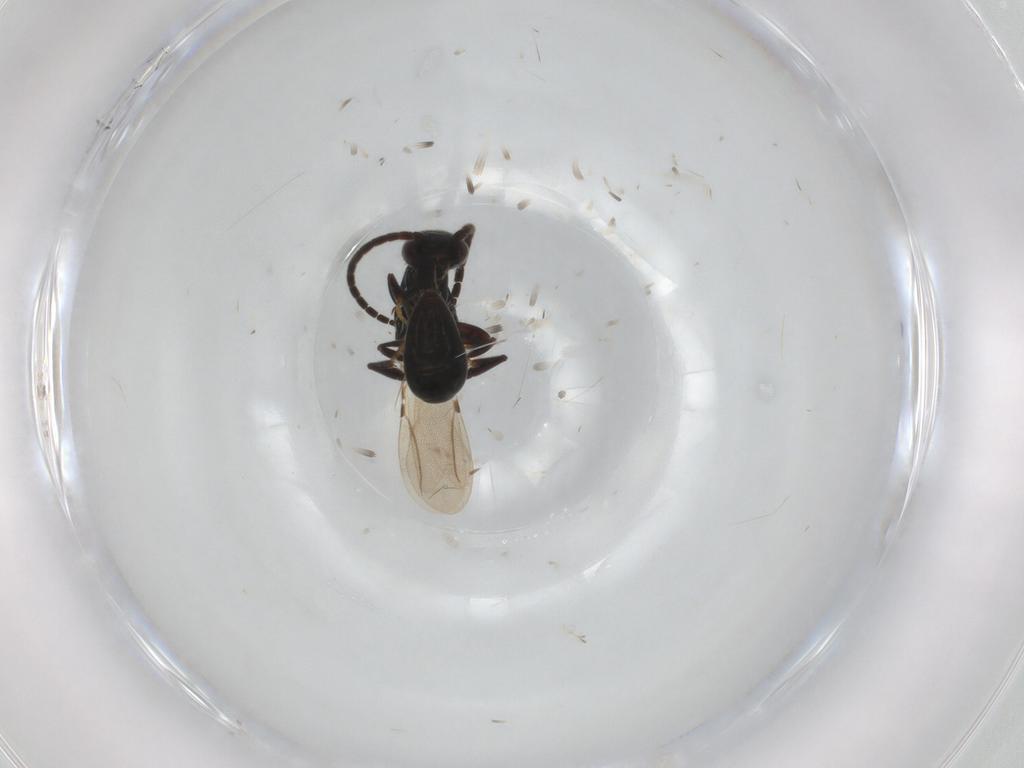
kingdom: Animalia
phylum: Arthropoda
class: Insecta
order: Hymenoptera
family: Bethylidae
